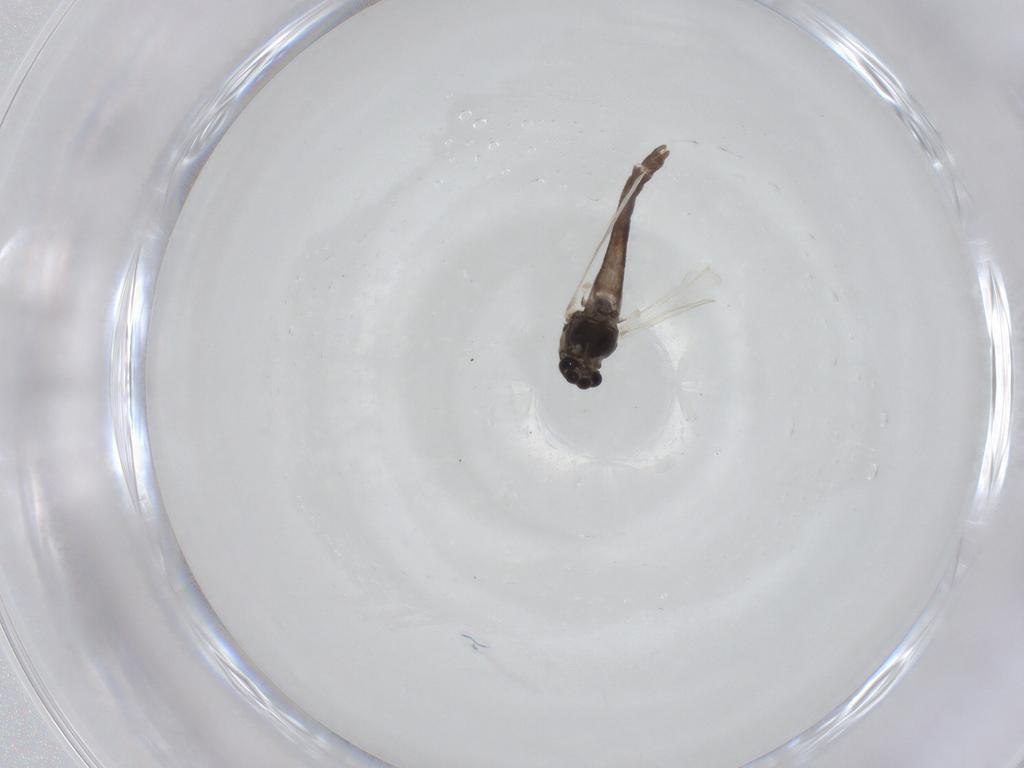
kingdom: Animalia
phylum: Arthropoda
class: Insecta
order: Diptera
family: Chironomidae
